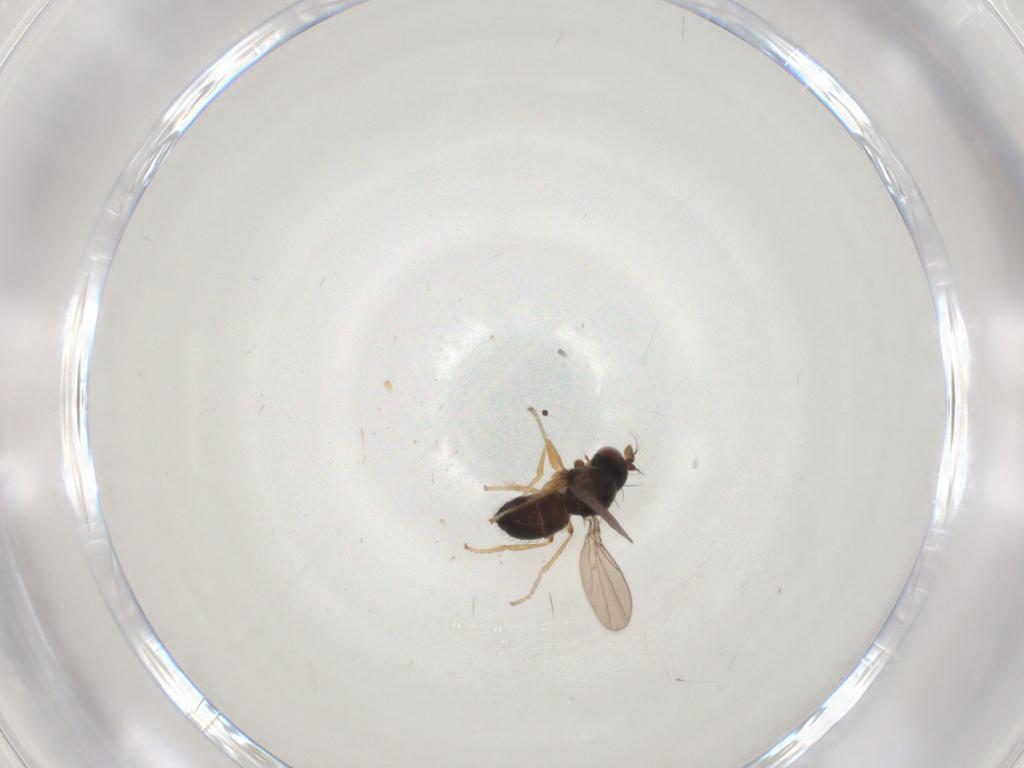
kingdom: Animalia
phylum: Arthropoda
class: Insecta
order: Diptera
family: Ephydridae
